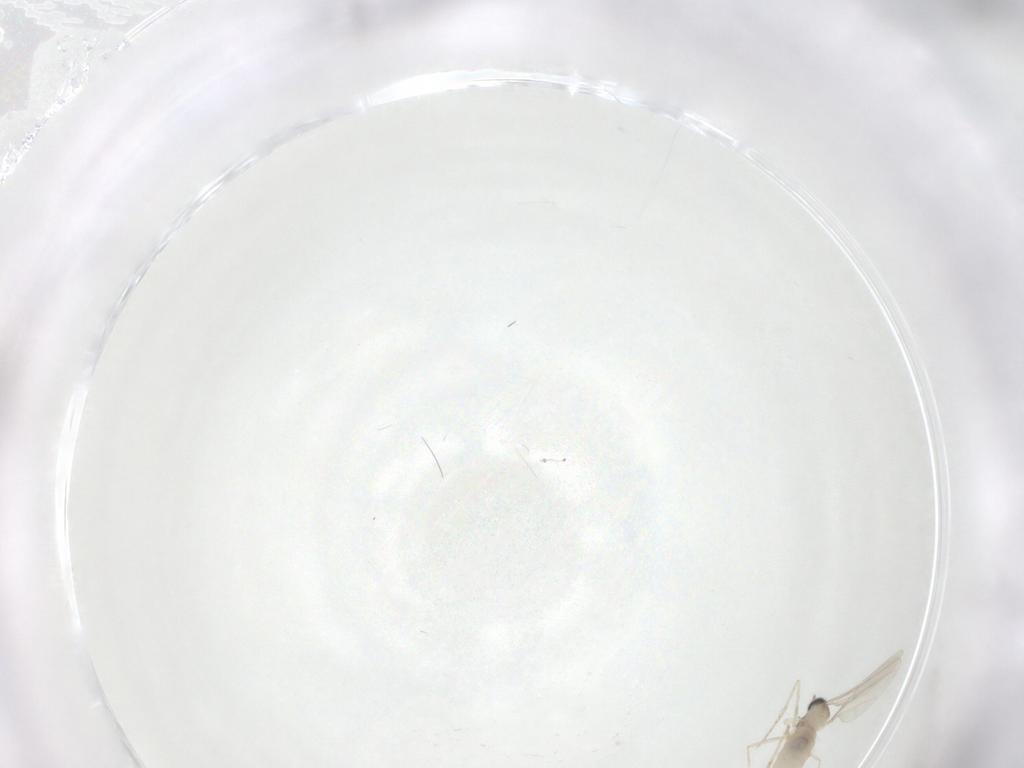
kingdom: Animalia
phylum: Arthropoda
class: Insecta
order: Diptera
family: Cecidomyiidae
